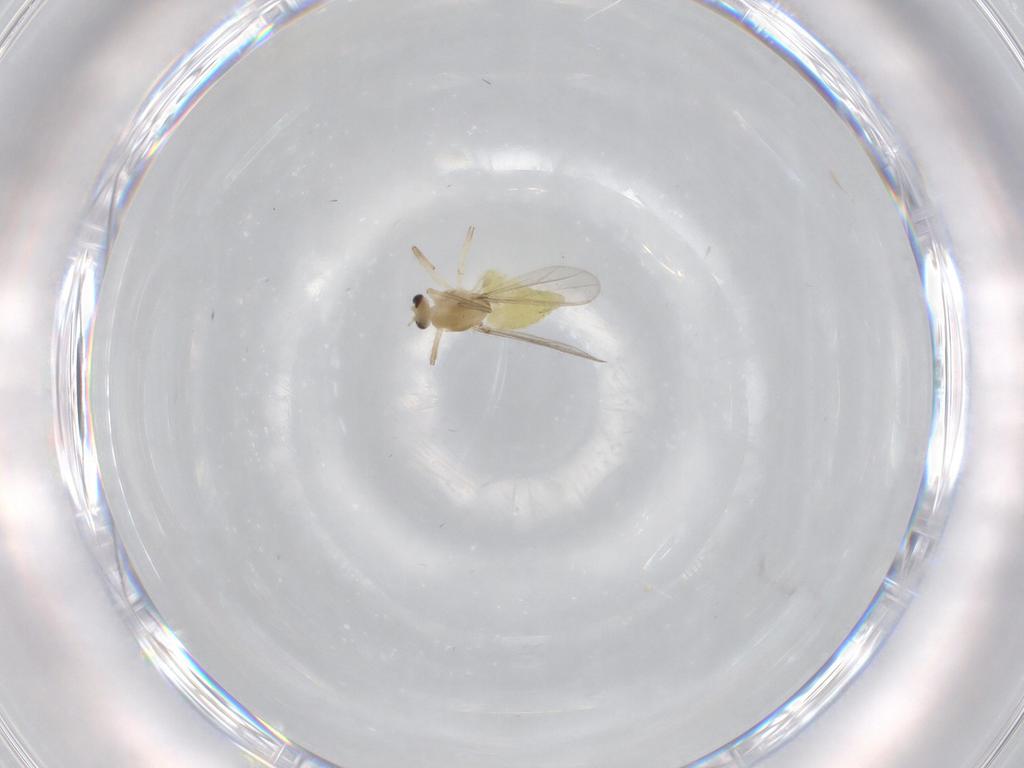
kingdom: Animalia
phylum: Arthropoda
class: Insecta
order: Diptera
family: Chironomidae
